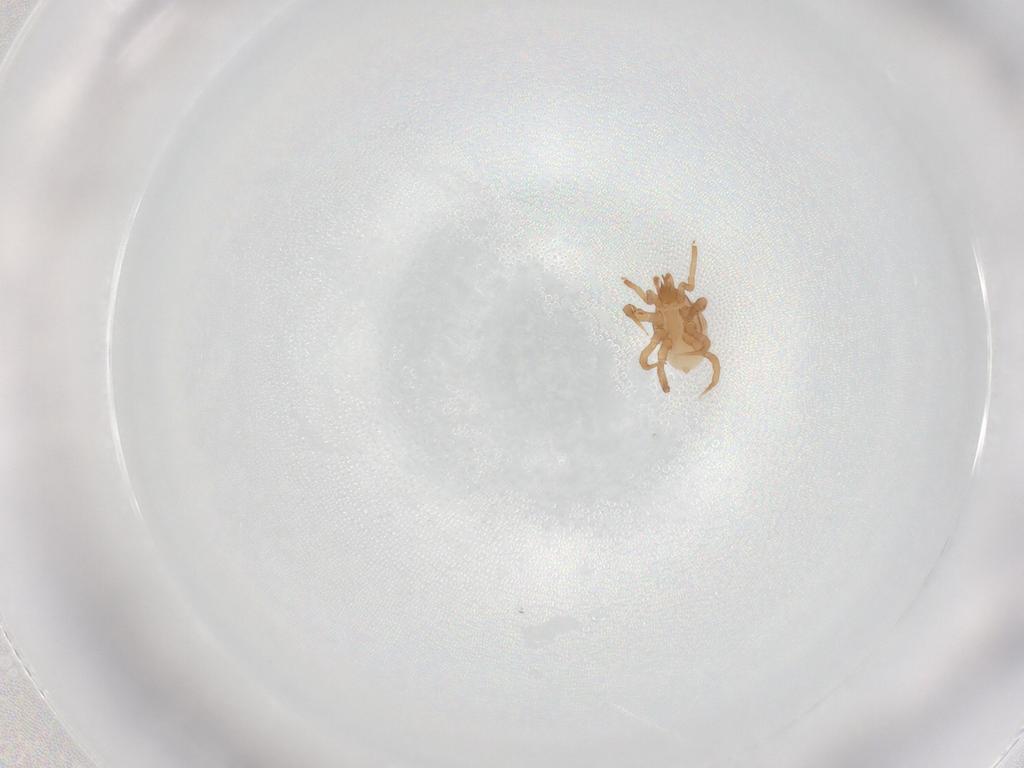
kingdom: Animalia
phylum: Arthropoda
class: Arachnida
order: Mesostigmata
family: Parasitidae
